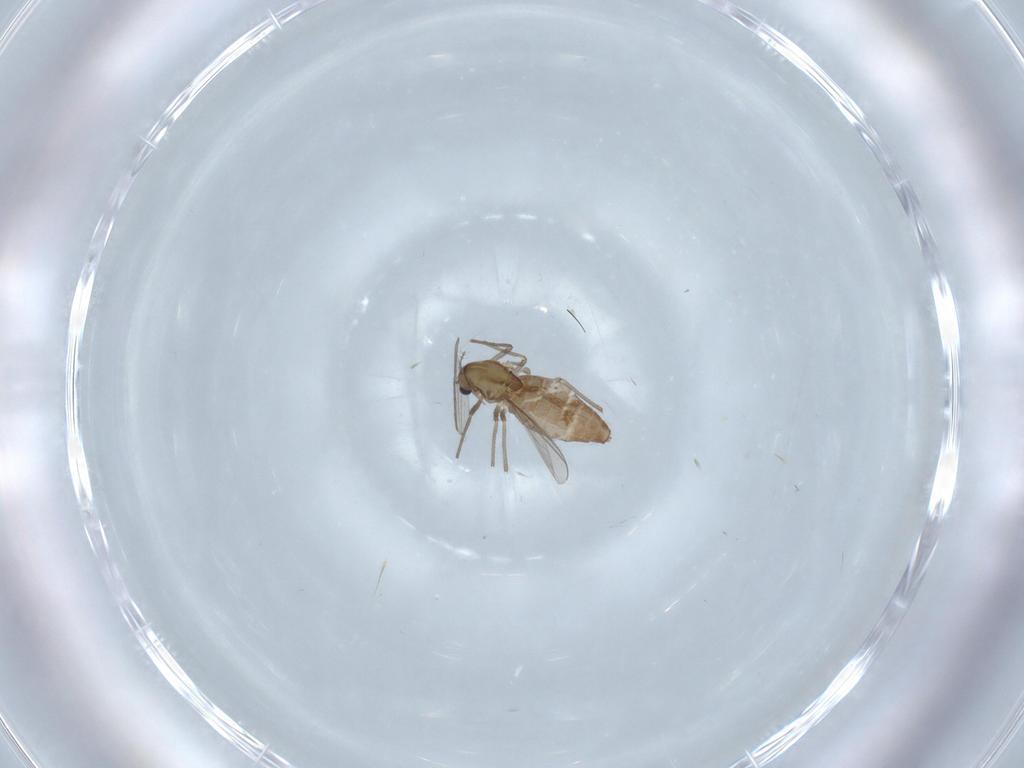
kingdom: Animalia
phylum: Arthropoda
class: Insecta
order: Diptera
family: Chironomidae
